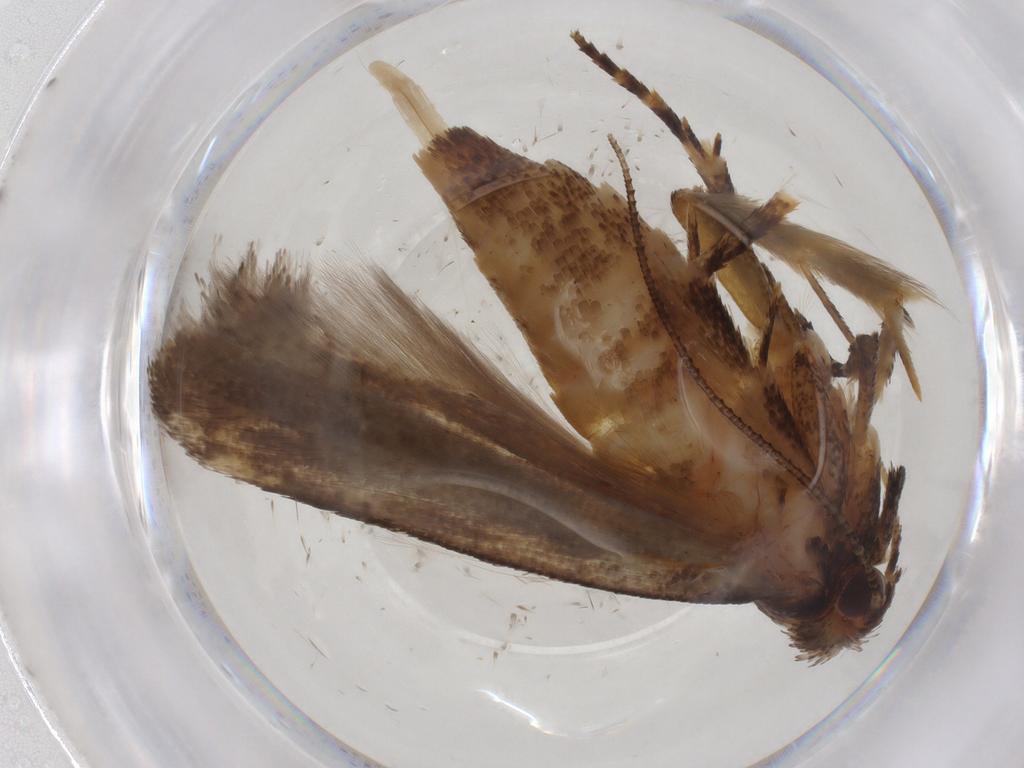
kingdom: Animalia
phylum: Arthropoda
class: Insecta
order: Lepidoptera
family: Gelechiidae
